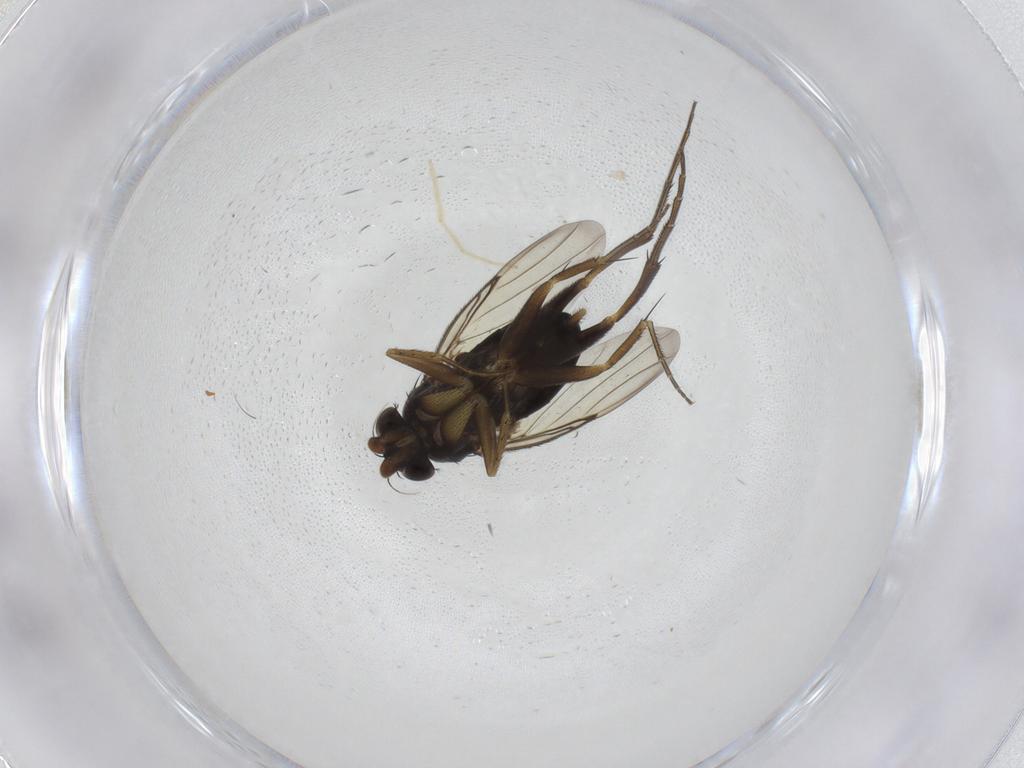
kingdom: Animalia
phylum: Arthropoda
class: Insecta
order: Diptera
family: Phoridae
